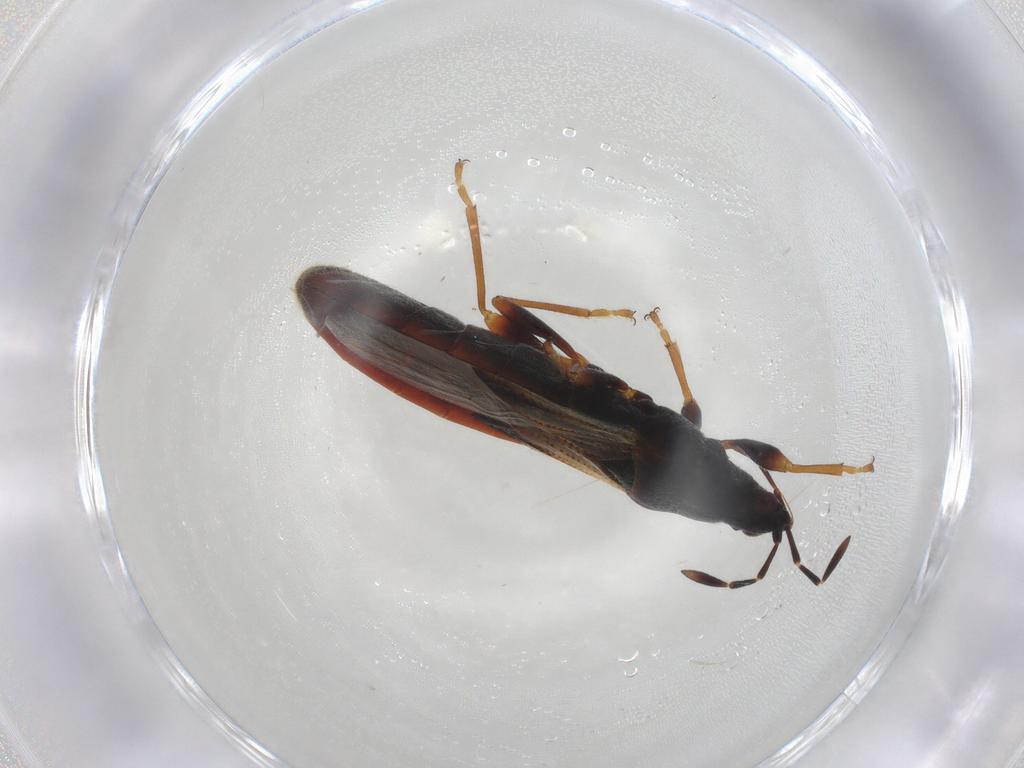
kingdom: Animalia
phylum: Arthropoda
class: Insecta
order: Hemiptera
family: Blissidae
